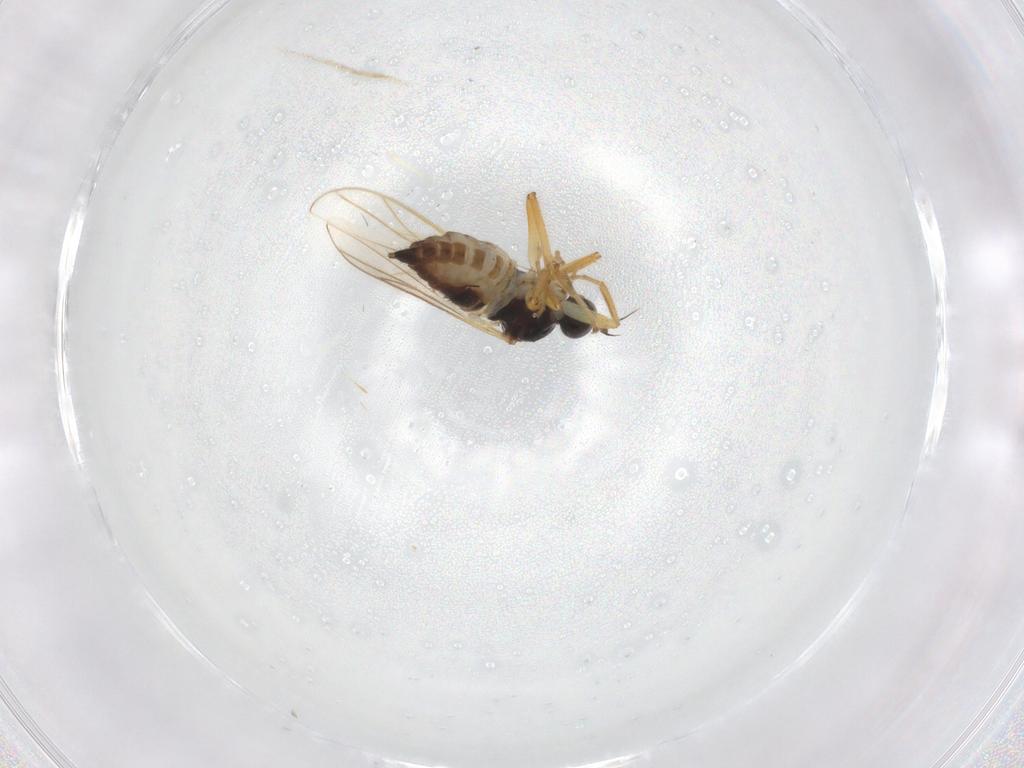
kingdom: Animalia
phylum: Arthropoda
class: Insecta
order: Diptera
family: Hybotidae
